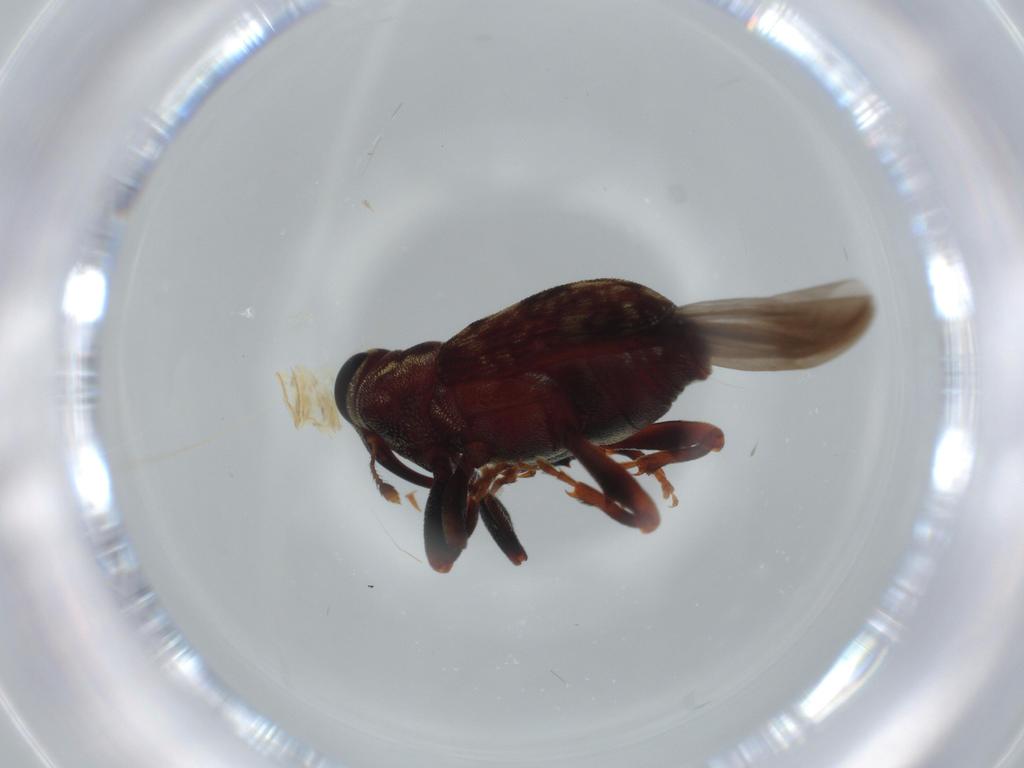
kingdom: Animalia
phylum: Arthropoda
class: Insecta
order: Coleoptera
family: Curculionidae
